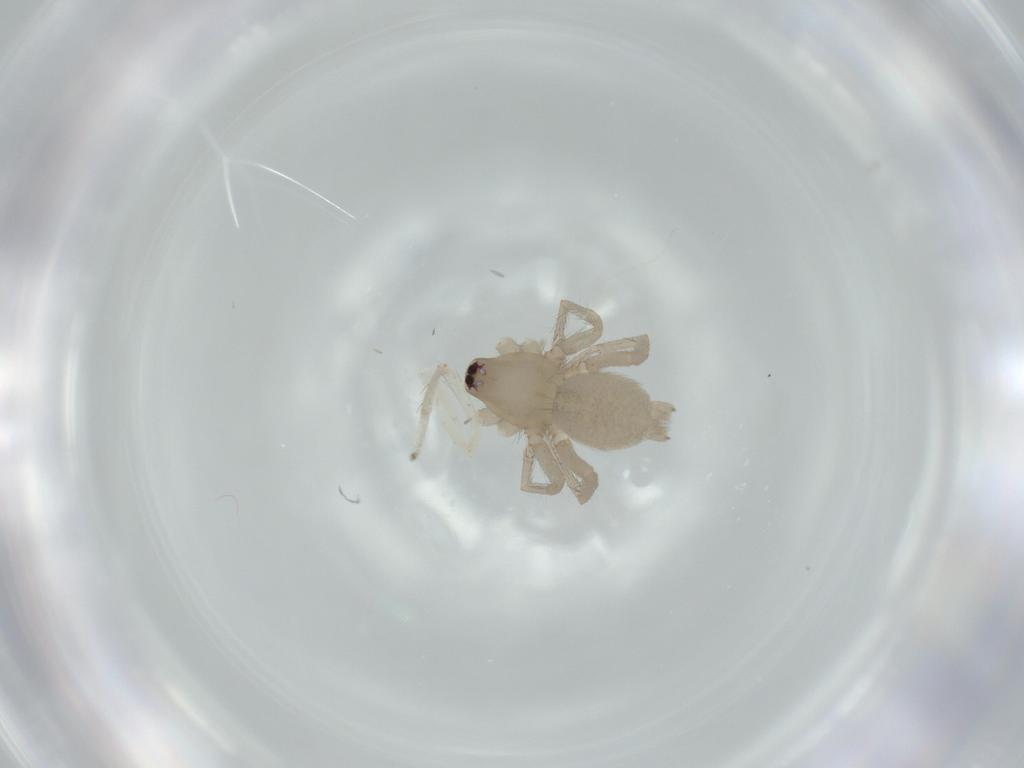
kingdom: Animalia
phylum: Arthropoda
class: Arachnida
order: Araneae
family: Anyphaenidae
